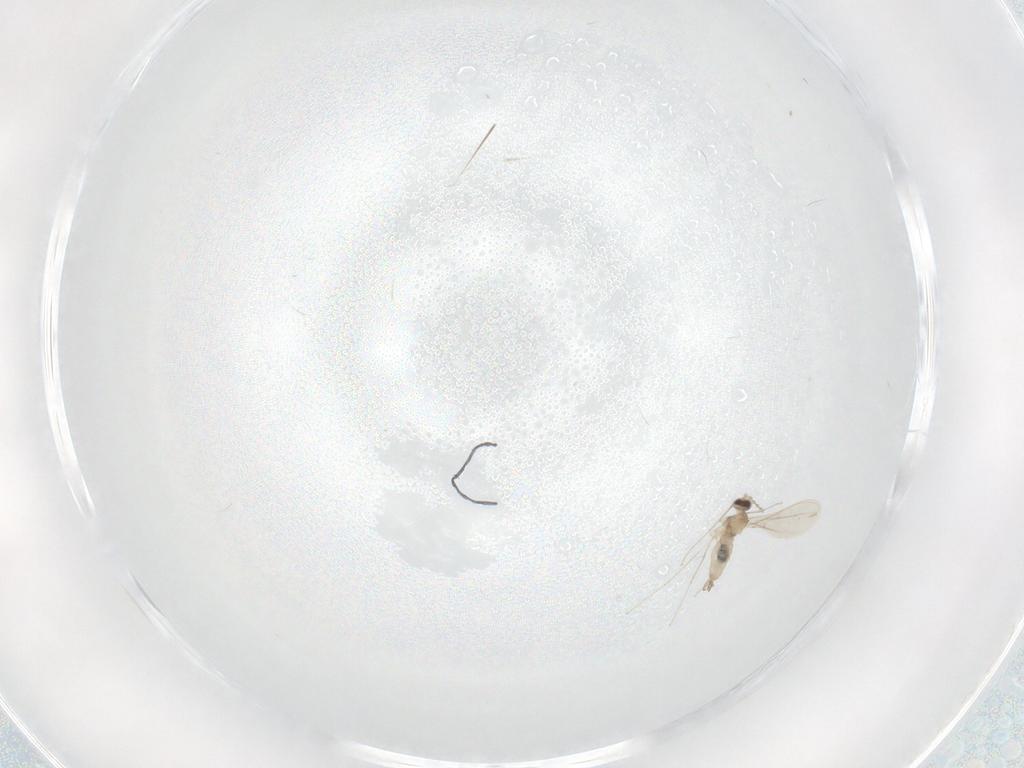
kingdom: Animalia
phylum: Arthropoda
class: Insecta
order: Diptera
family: Cecidomyiidae
